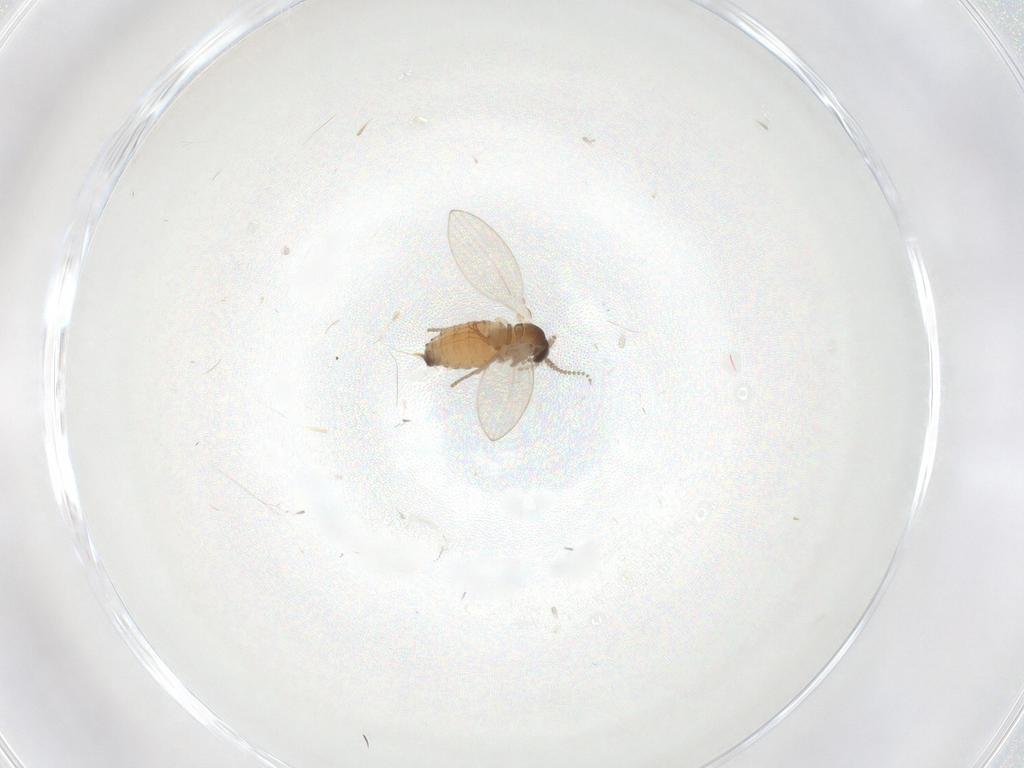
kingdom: Animalia
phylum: Arthropoda
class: Insecta
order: Diptera
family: Psychodidae
